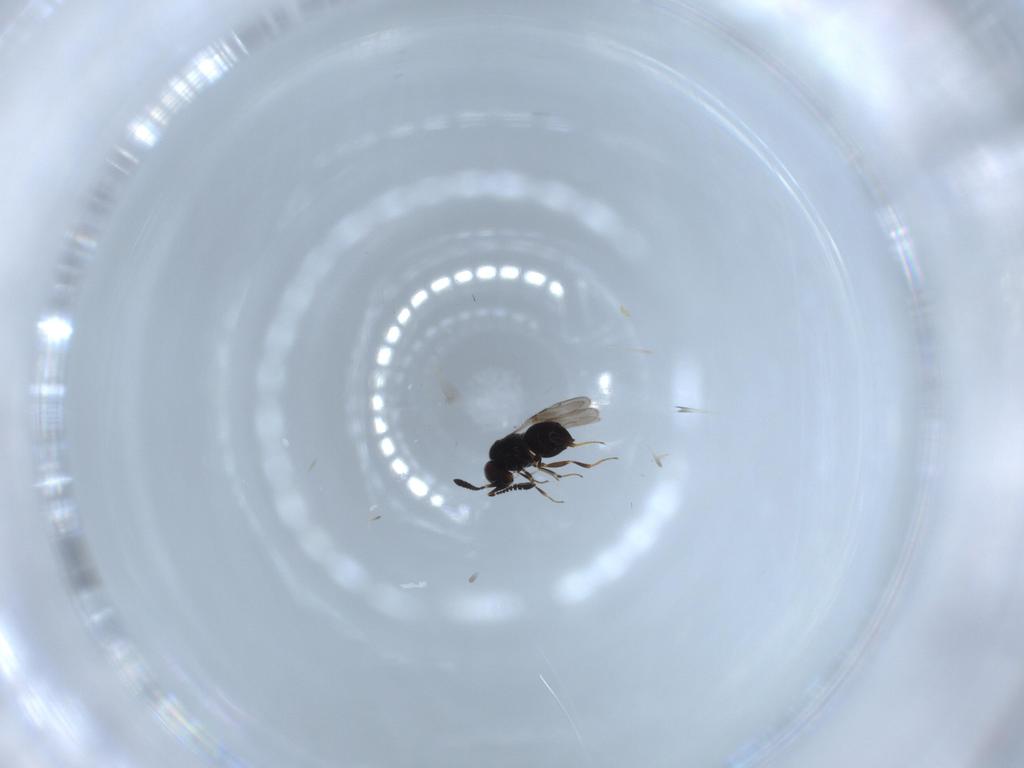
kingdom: Animalia
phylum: Arthropoda
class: Insecta
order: Hymenoptera
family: Ceraphronidae
